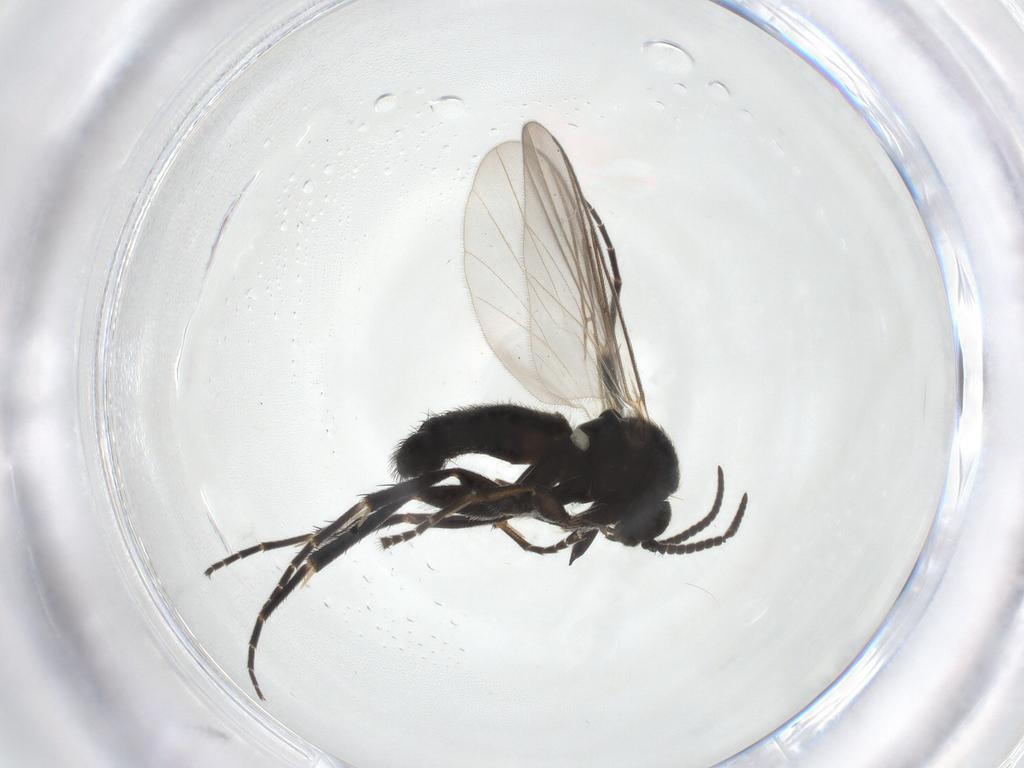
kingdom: Animalia
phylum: Arthropoda
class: Insecta
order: Diptera
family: Mycetophilidae
